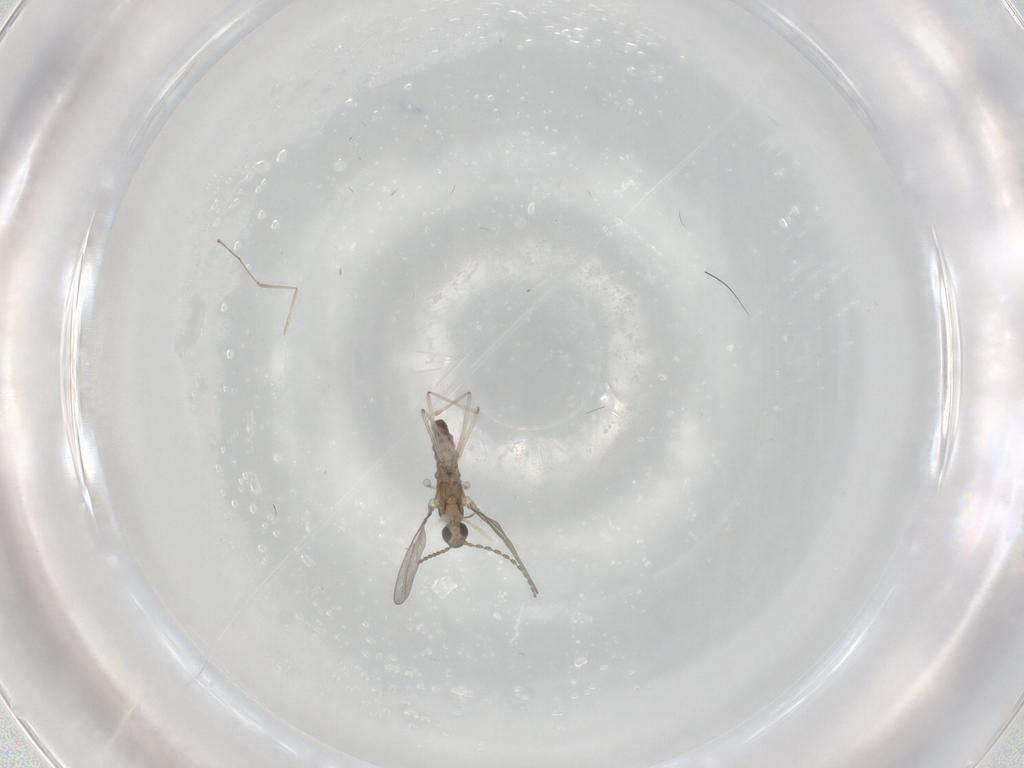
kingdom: Animalia
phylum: Arthropoda
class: Insecta
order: Diptera
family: Cecidomyiidae
